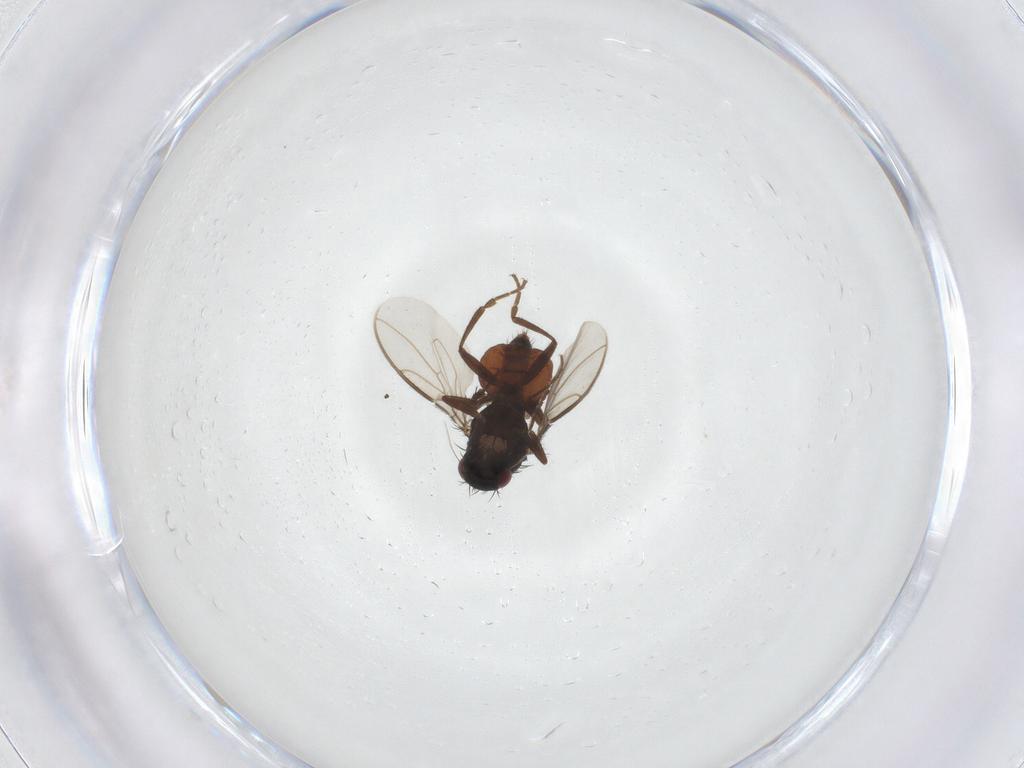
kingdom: Animalia
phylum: Arthropoda
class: Insecta
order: Diptera
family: Sphaeroceridae
